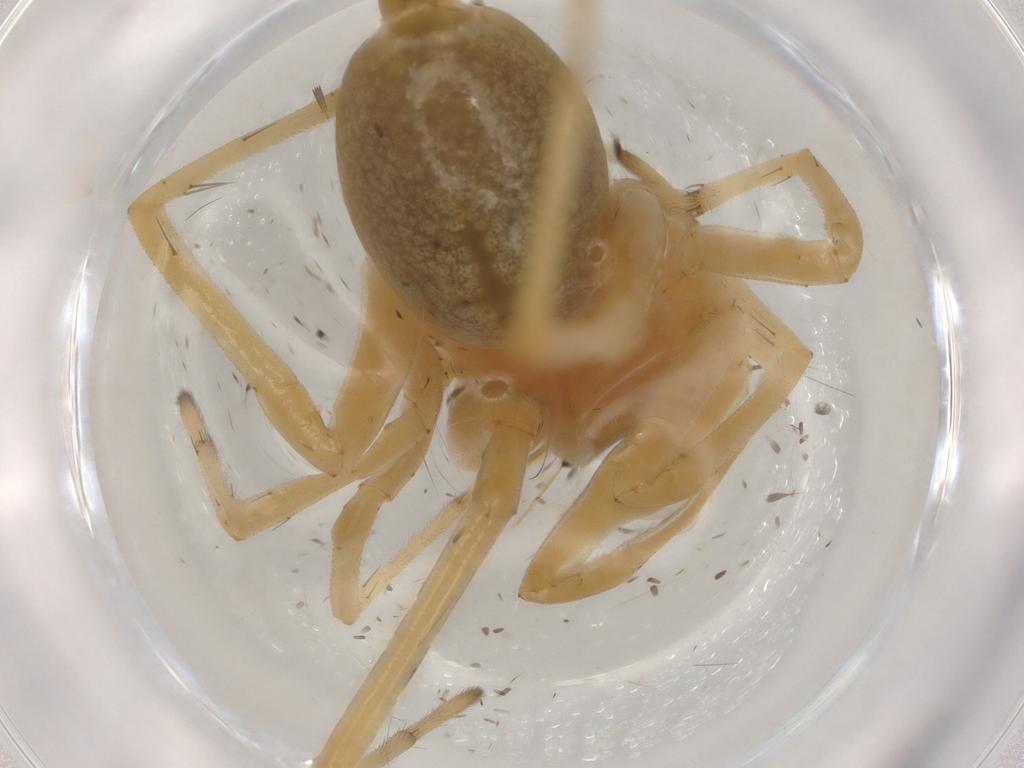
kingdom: Animalia
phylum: Arthropoda
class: Arachnida
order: Araneae
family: Cheiracanthiidae
